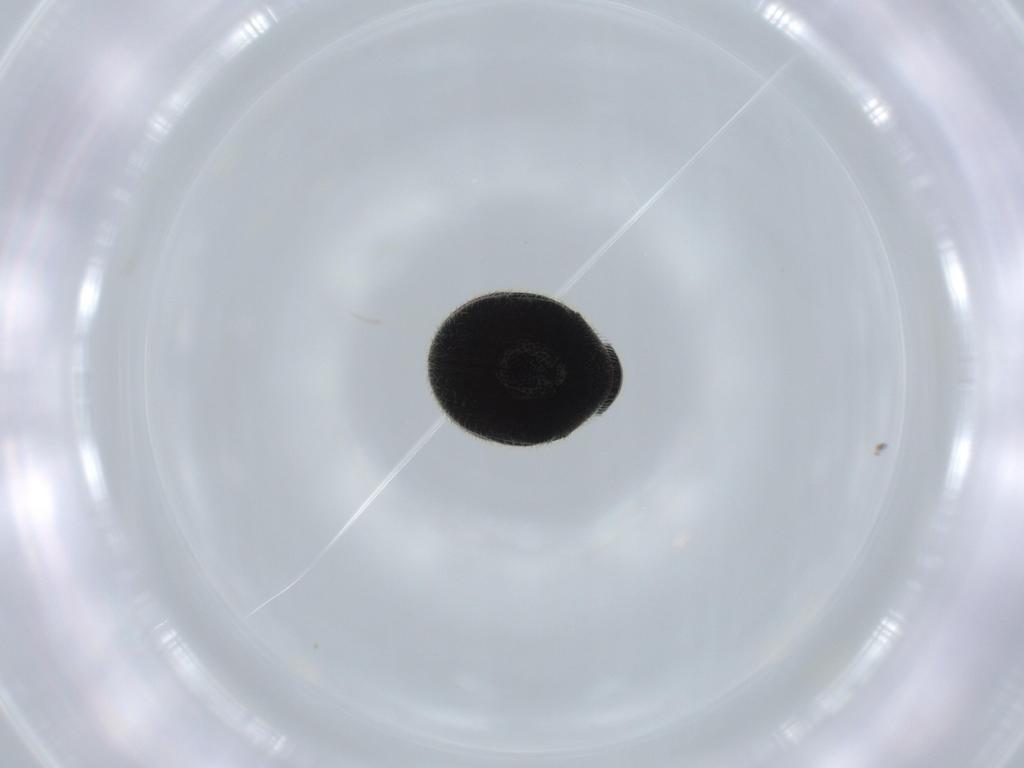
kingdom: Animalia
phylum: Arthropoda
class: Insecta
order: Coleoptera
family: Ptinidae
